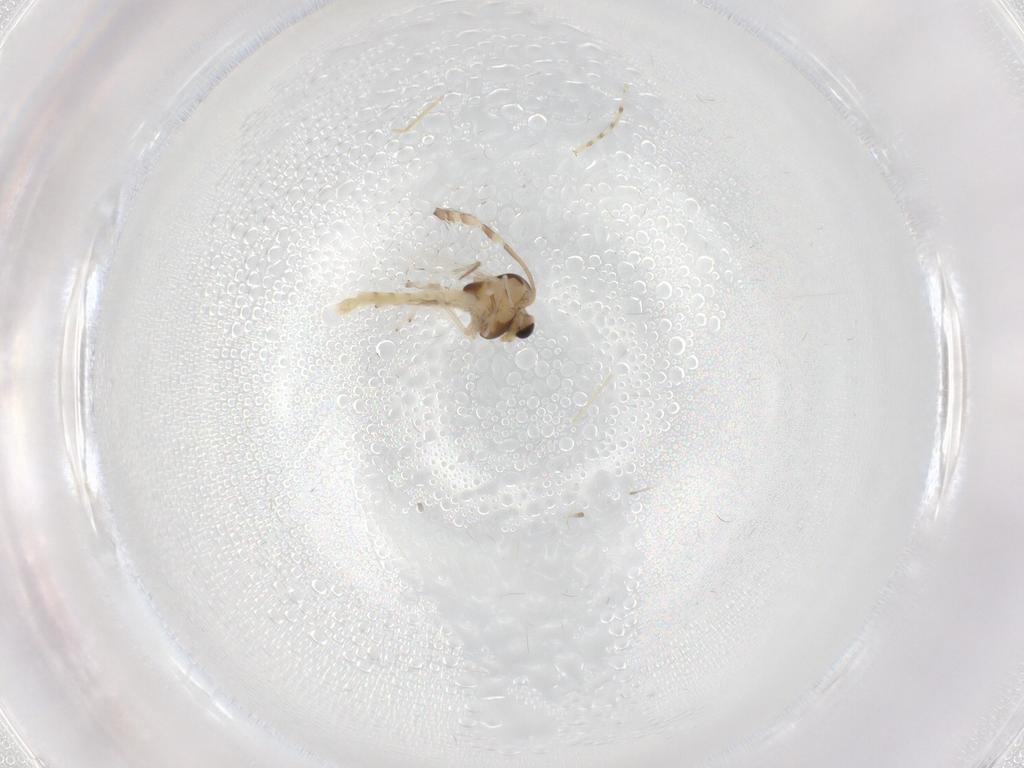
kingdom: Animalia
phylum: Arthropoda
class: Insecta
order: Diptera
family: Chironomidae
